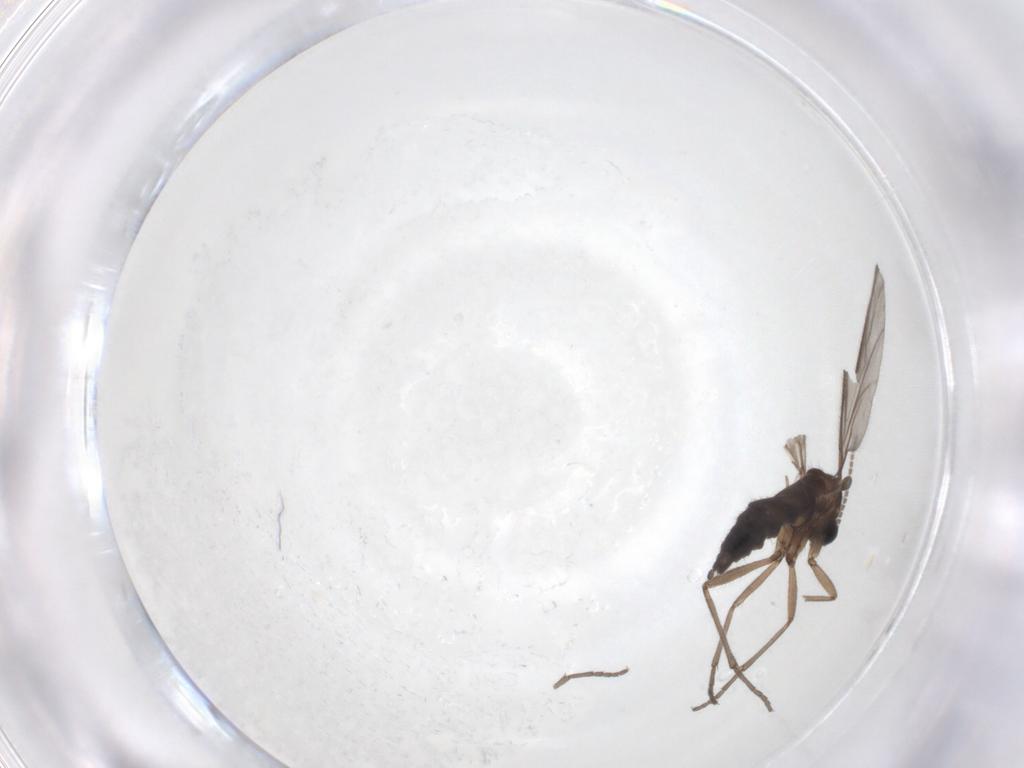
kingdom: Animalia
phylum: Arthropoda
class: Insecta
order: Diptera
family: Sciaridae
